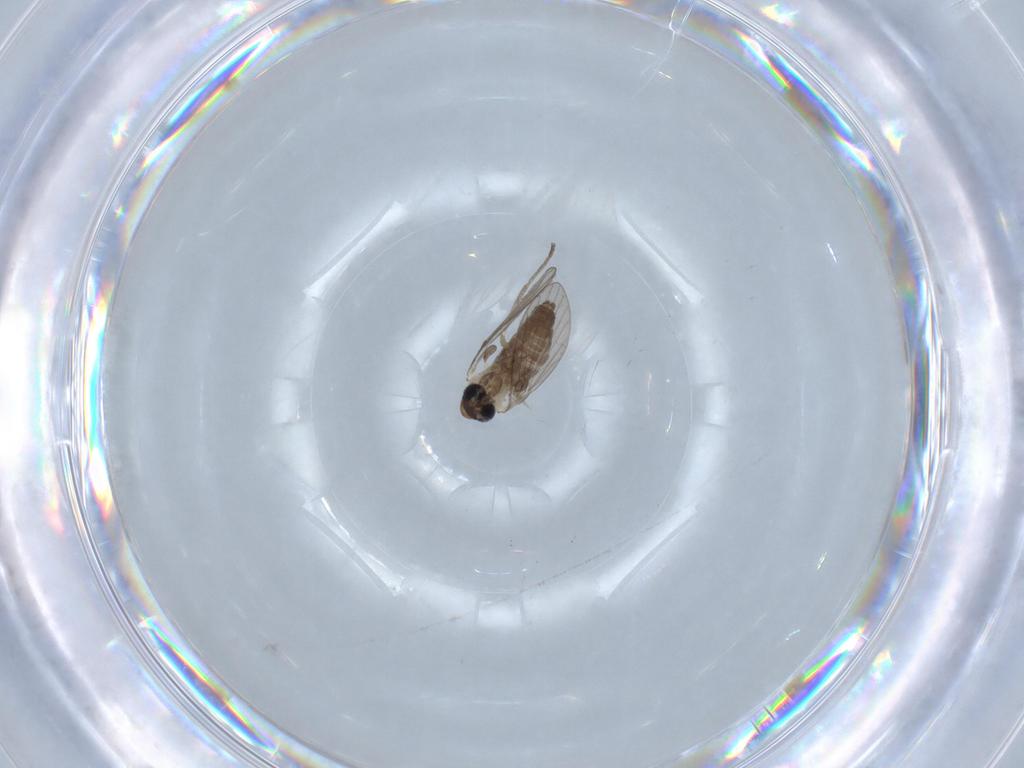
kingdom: Animalia
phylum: Arthropoda
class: Insecta
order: Diptera
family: Psychodidae
